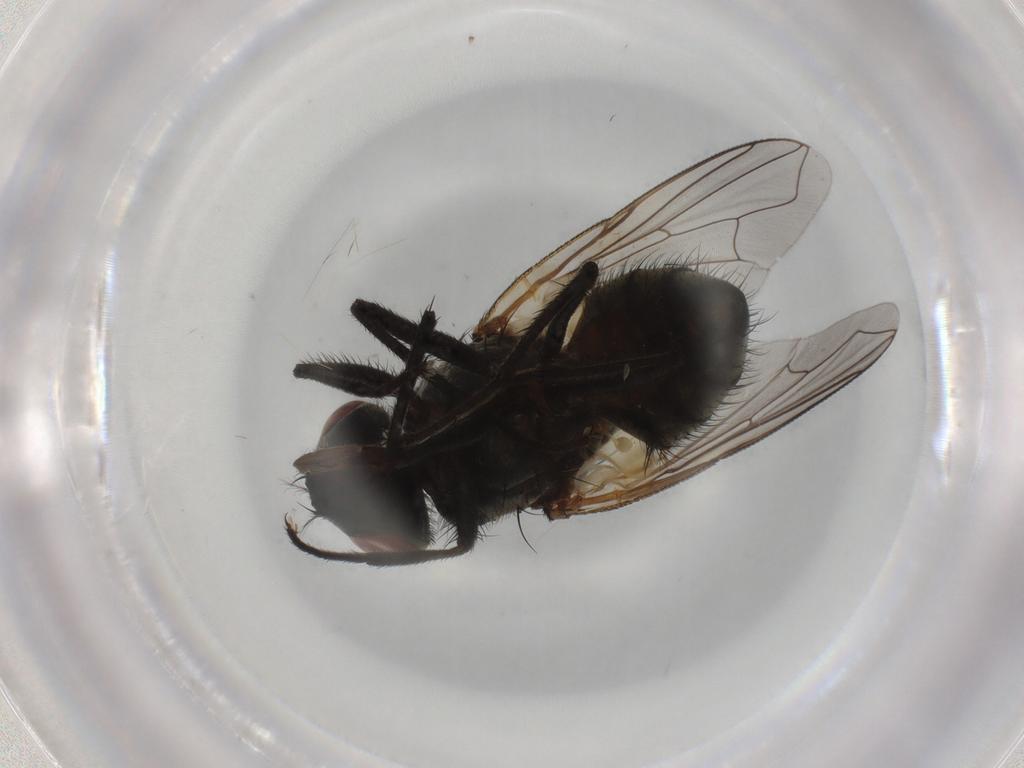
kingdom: Animalia
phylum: Arthropoda
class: Insecta
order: Diptera
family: Muscidae
